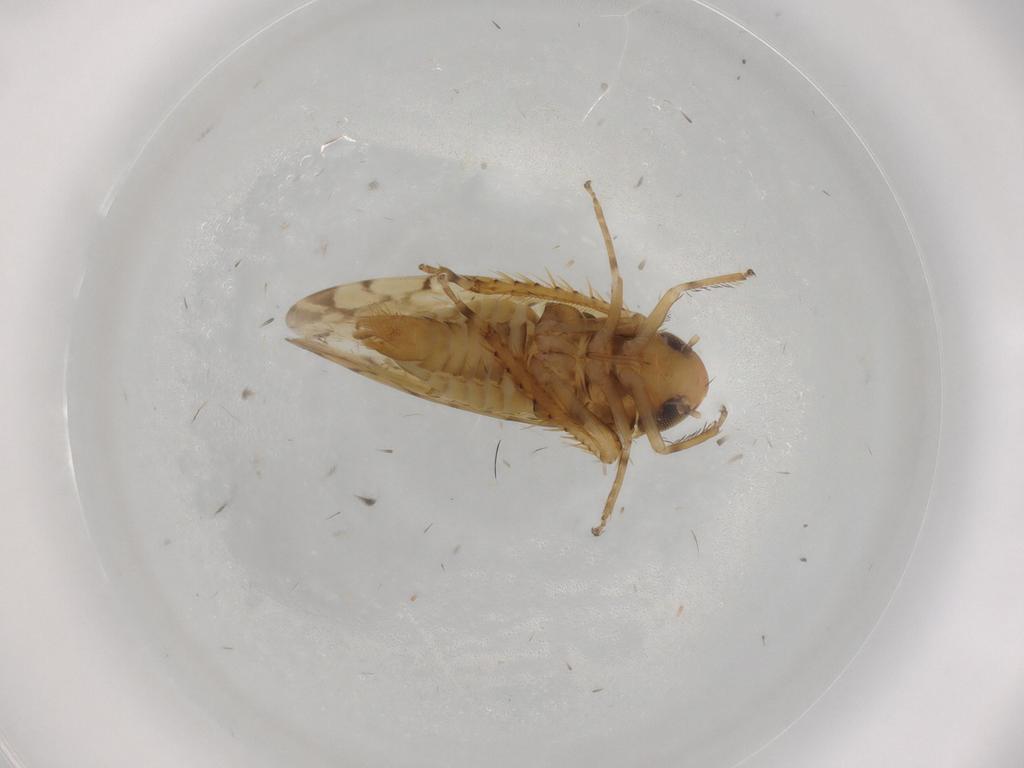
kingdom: Animalia
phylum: Arthropoda
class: Insecta
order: Hemiptera
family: Cicadellidae
